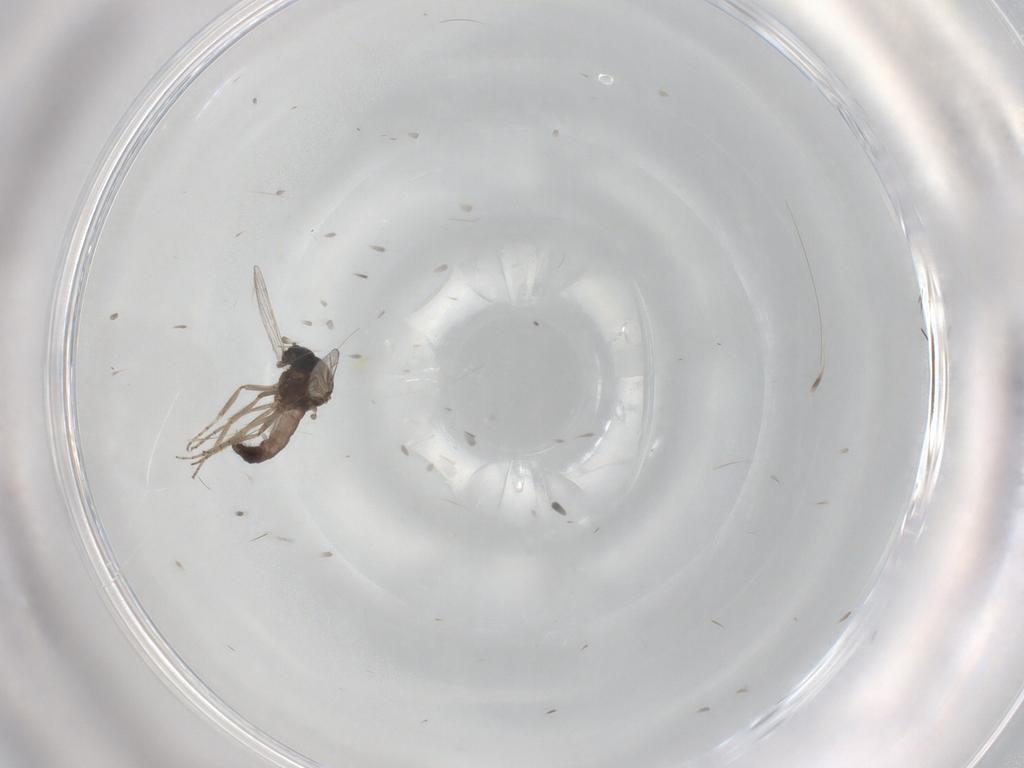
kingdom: Animalia
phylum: Arthropoda
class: Insecta
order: Diptera
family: Ceratopogonidae
